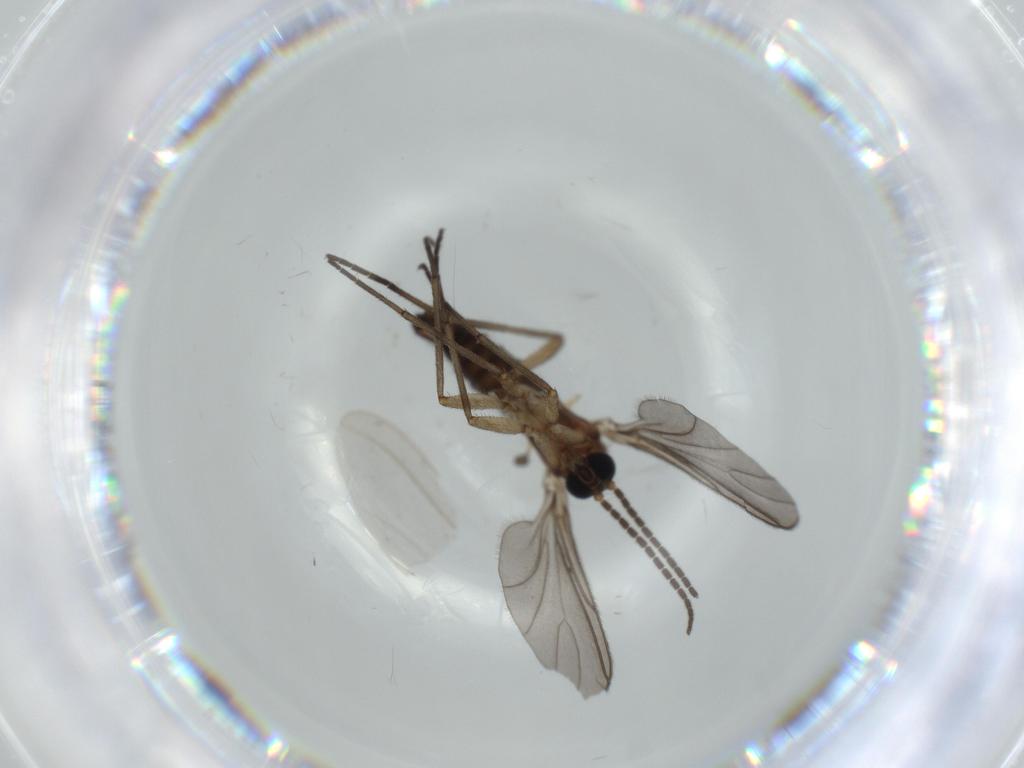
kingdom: Animalia
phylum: Arthropoda
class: Insecta
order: Diptera
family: Sciaridae
